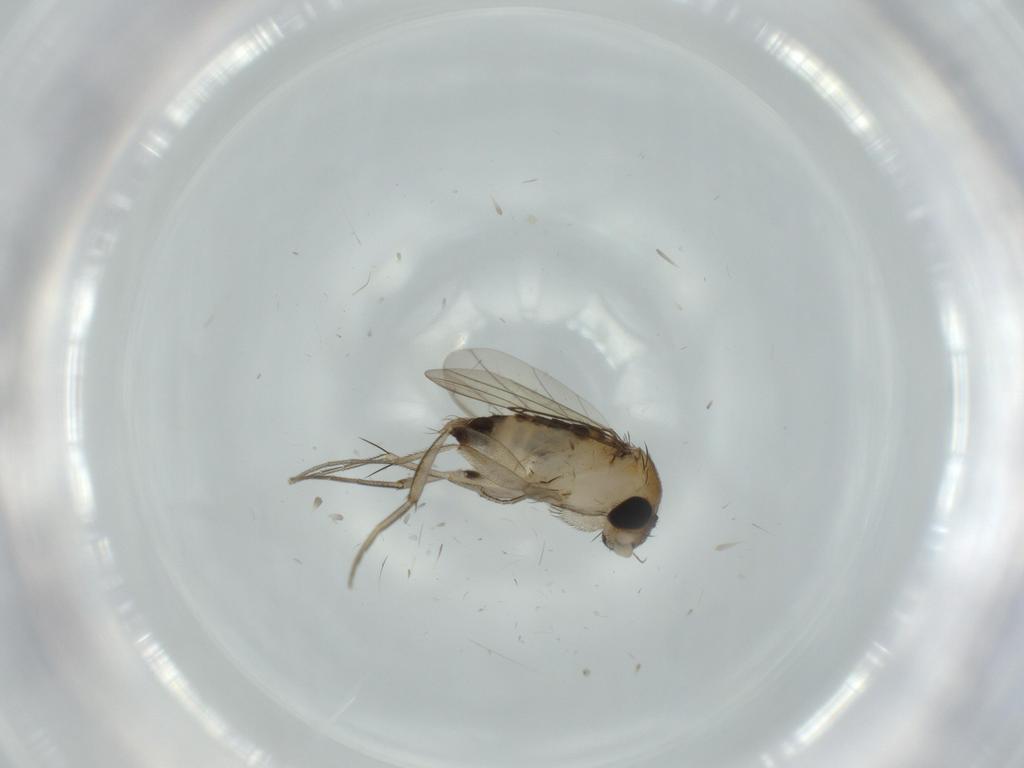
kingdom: Animalia
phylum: Arthropoda
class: Insecta
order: Diptera
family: Phoridae
